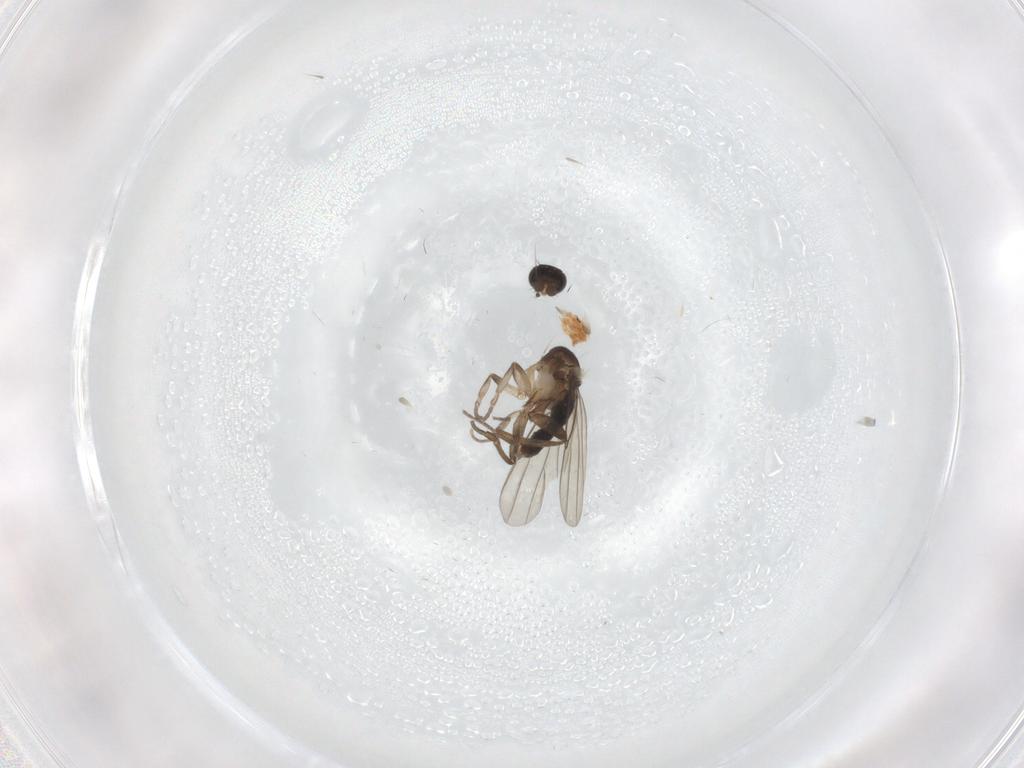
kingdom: Animalia
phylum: Arthropoda
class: Insecta
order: Diptera
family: Phoridae
